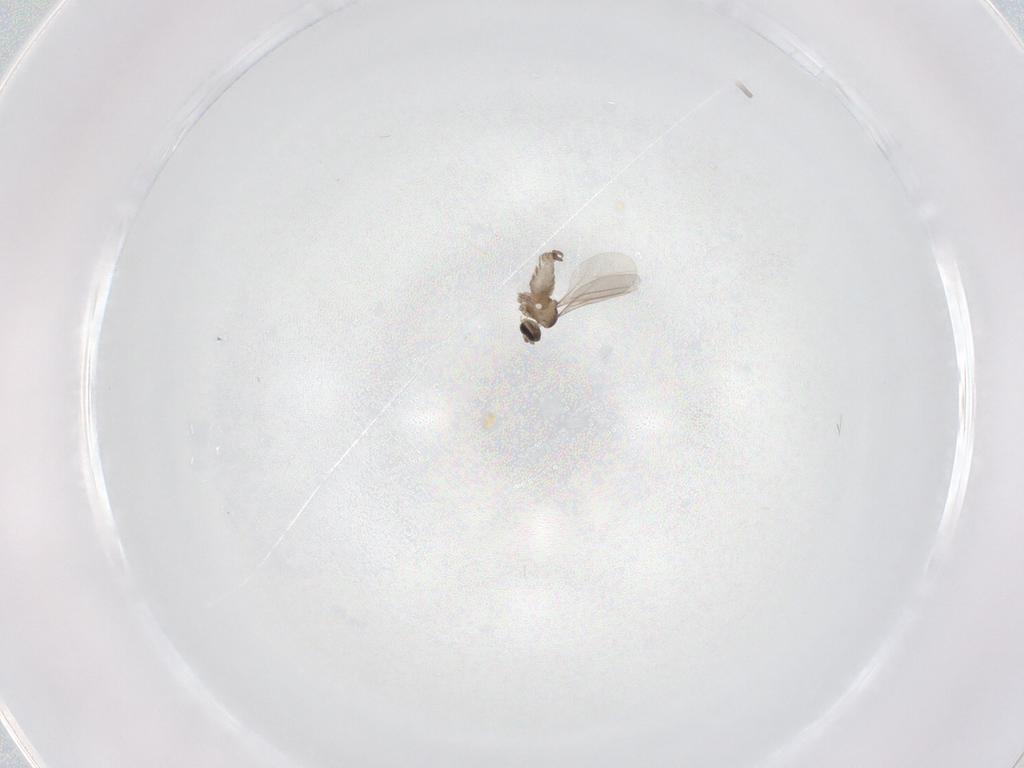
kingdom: Animalia
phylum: Arthropoda
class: Insecta
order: Diptera
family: Cecidomyiidae
